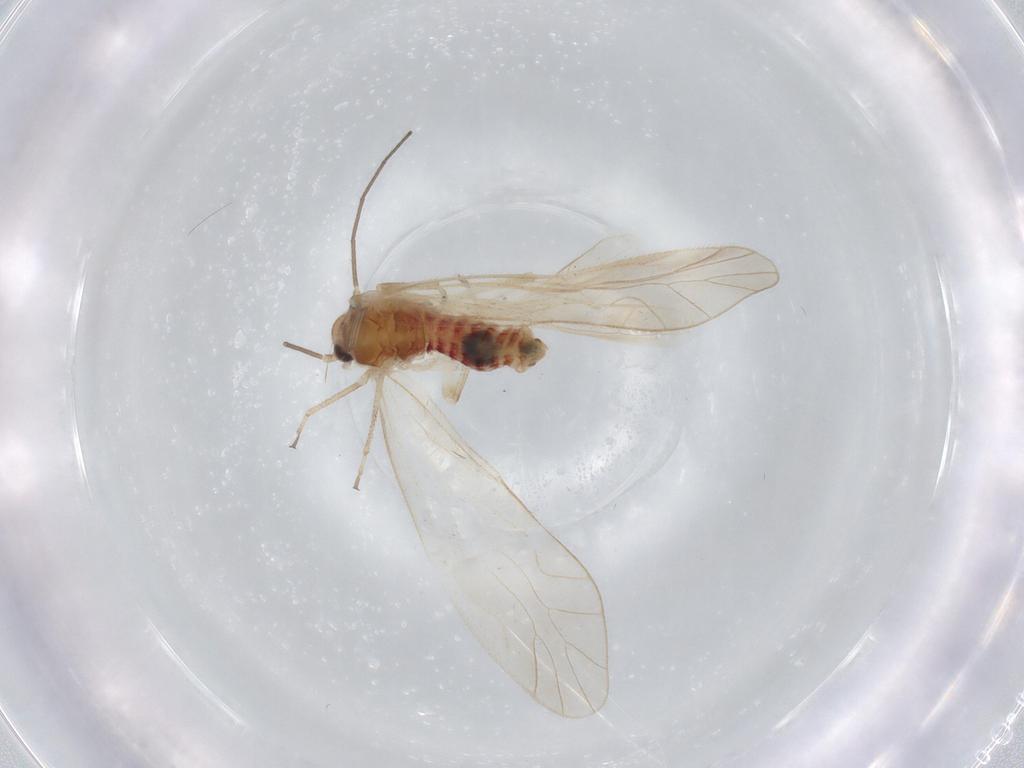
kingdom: Animalia
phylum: Arthropoda
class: Insecta
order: Psocodea
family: Caeciliusidae
